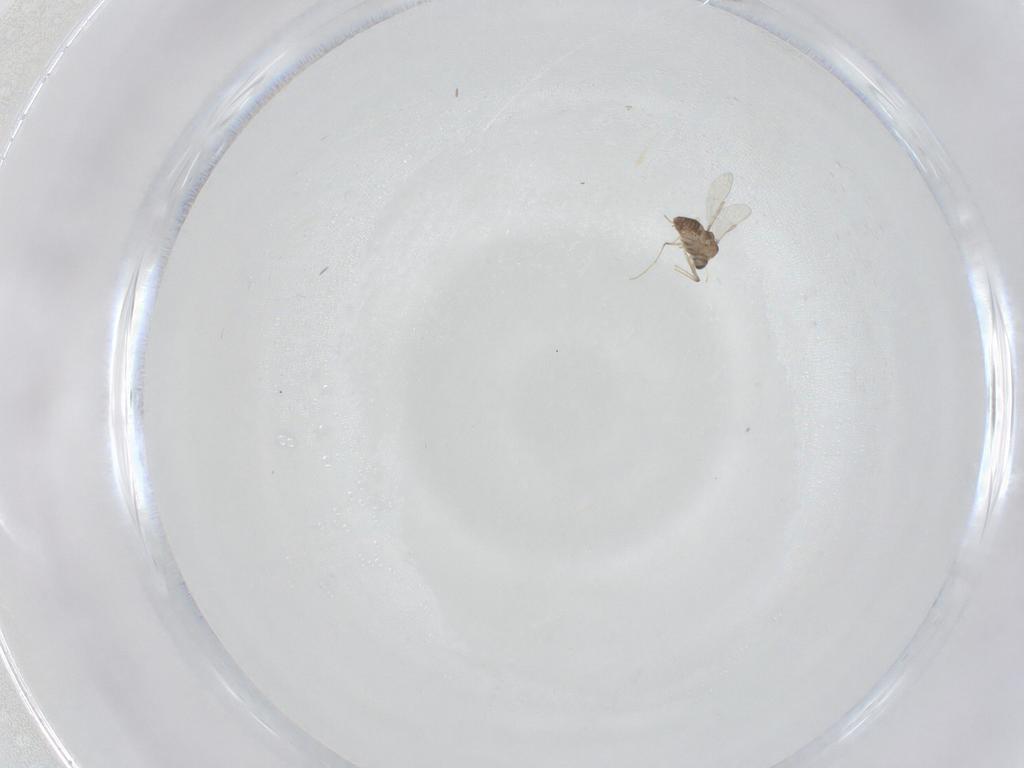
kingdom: Animalia
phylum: Arthropoda
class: Insecta
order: Diptera
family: Chironomidae
